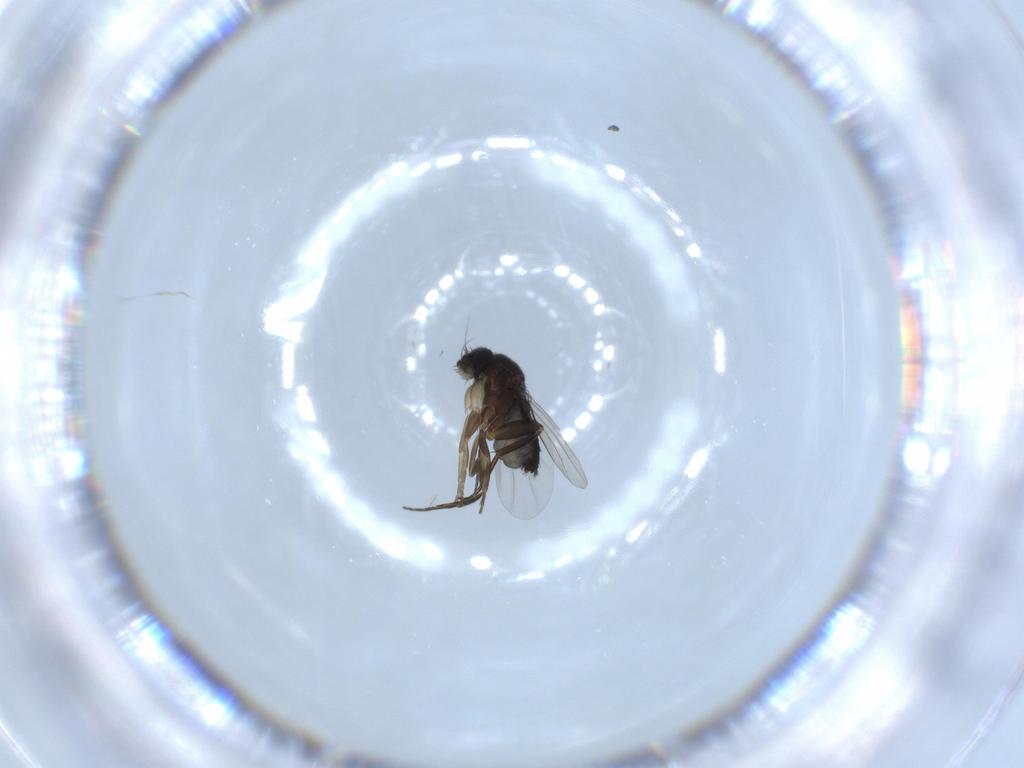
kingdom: Animalia
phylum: Arthropoda
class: Insecta
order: Diptera
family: Phoridae
